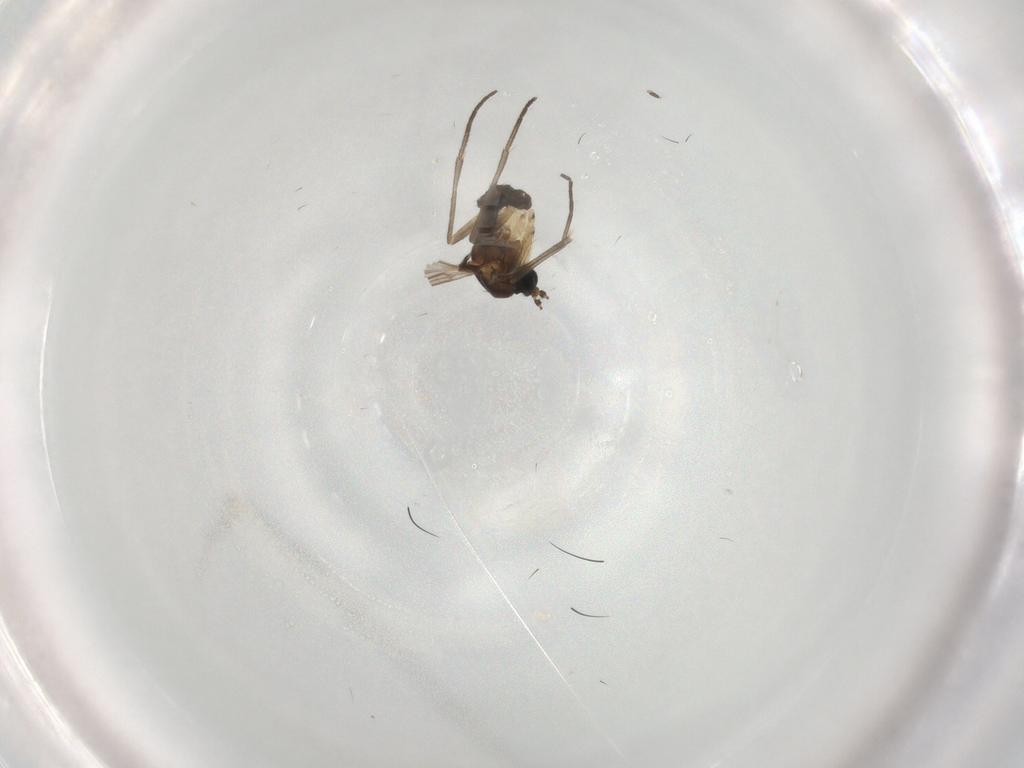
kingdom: Animalia
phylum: Arthropoda
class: Insecta
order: Diptera
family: Sciaridae
